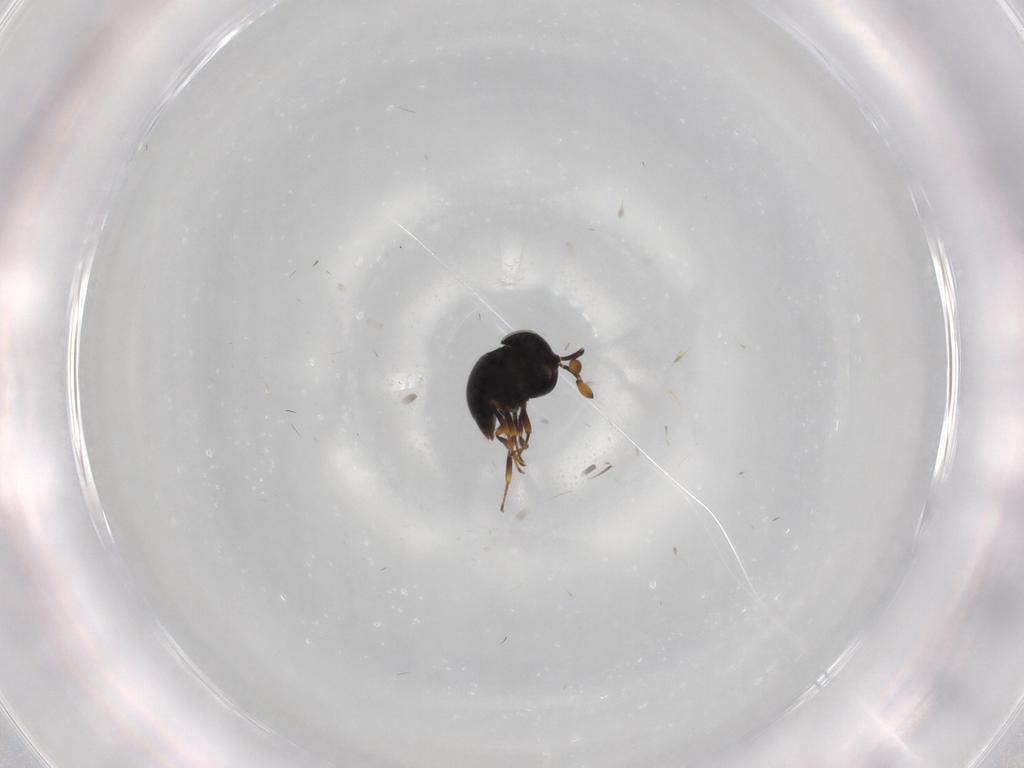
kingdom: Animalia
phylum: Arthropoda
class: Insecta
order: Hymenoptera
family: Scelionidae
